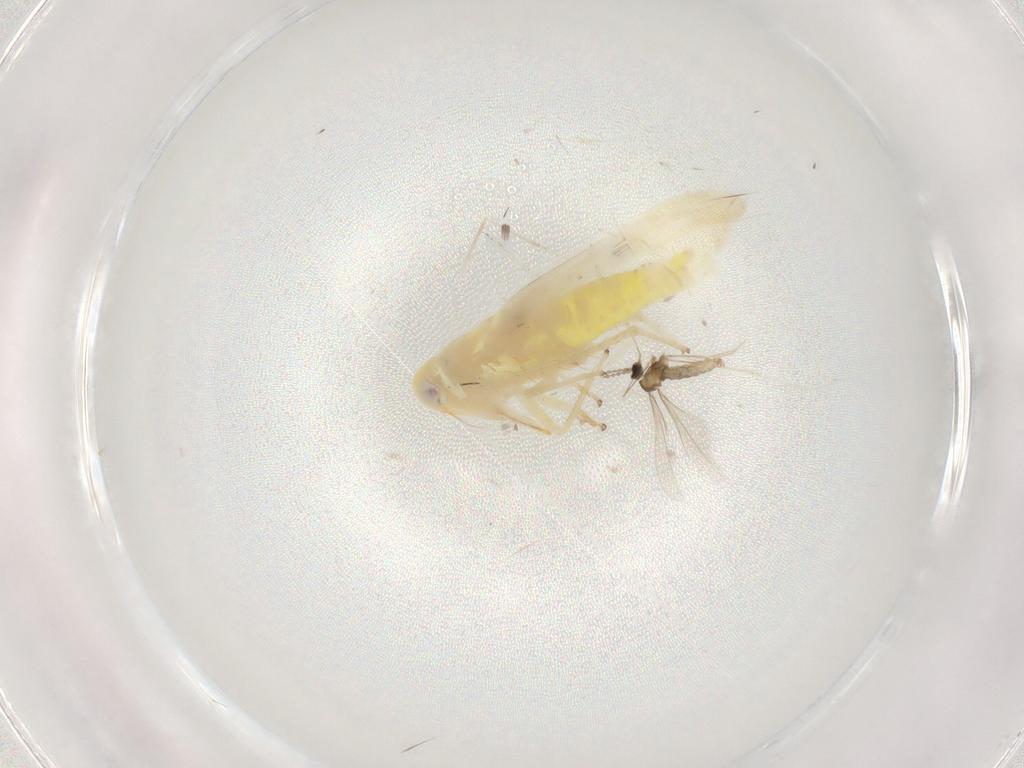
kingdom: Animalia
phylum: Arthropoda
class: Insecta
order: Diptera
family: Cecidomyiidae
